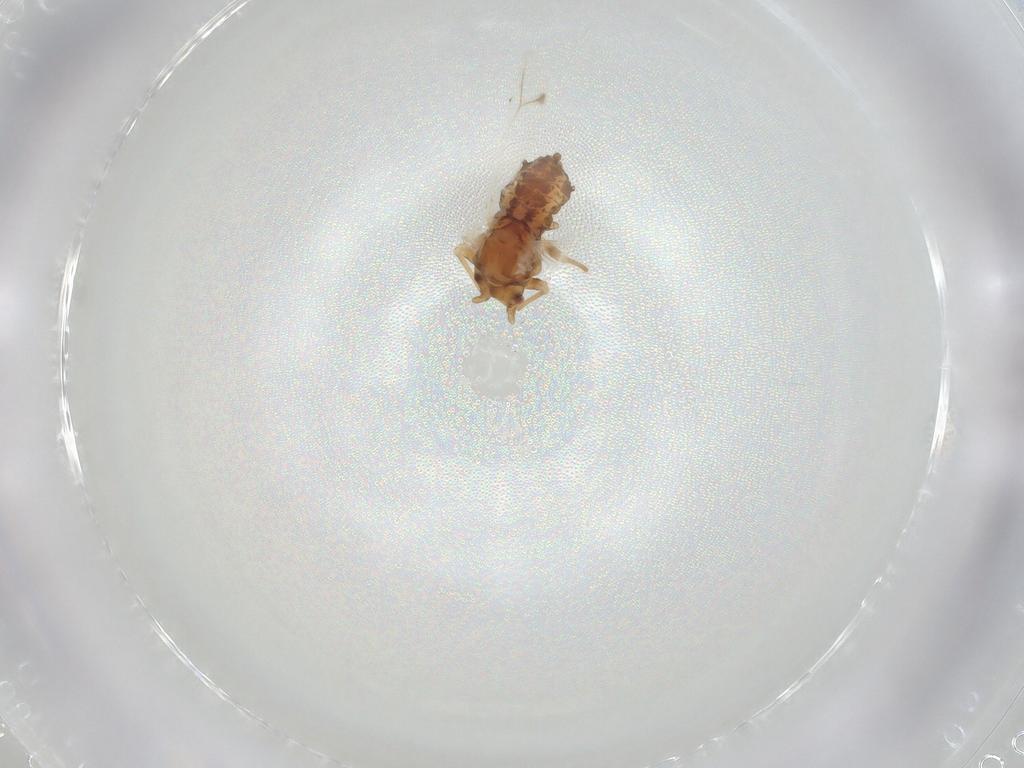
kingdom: Animalia
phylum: Arthropoda
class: Insecta
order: Hemiptera
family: Aphididae
